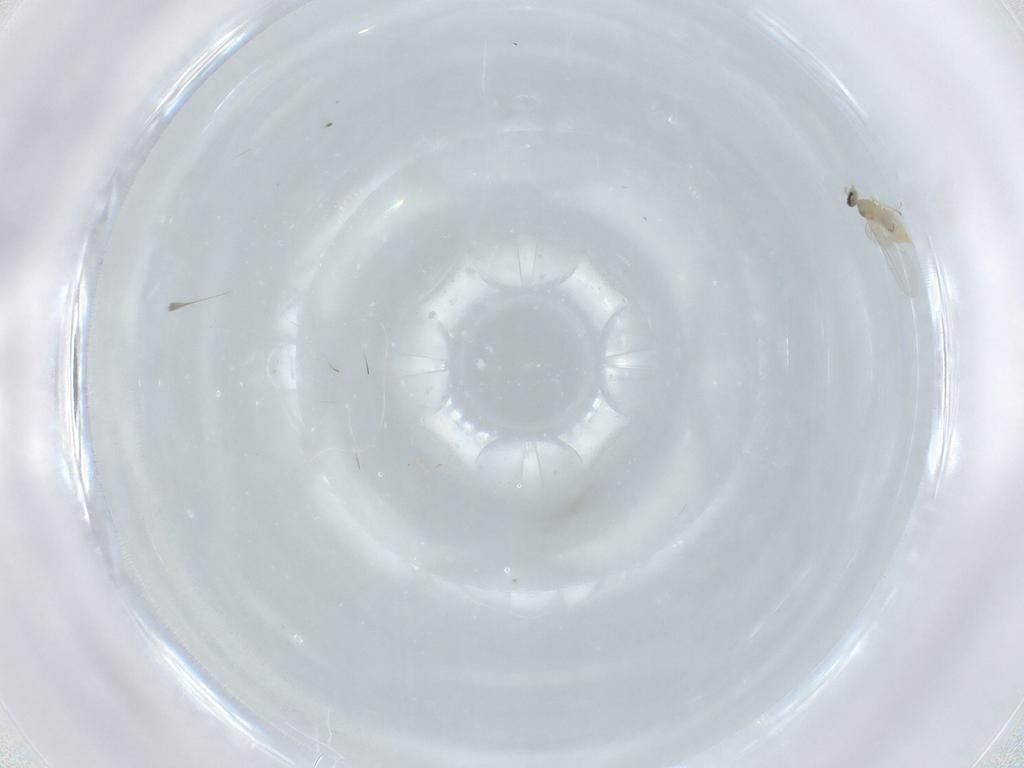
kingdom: Animalia
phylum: Arthropoda
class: Insecta
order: Diptera
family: Cecidomyiidae
